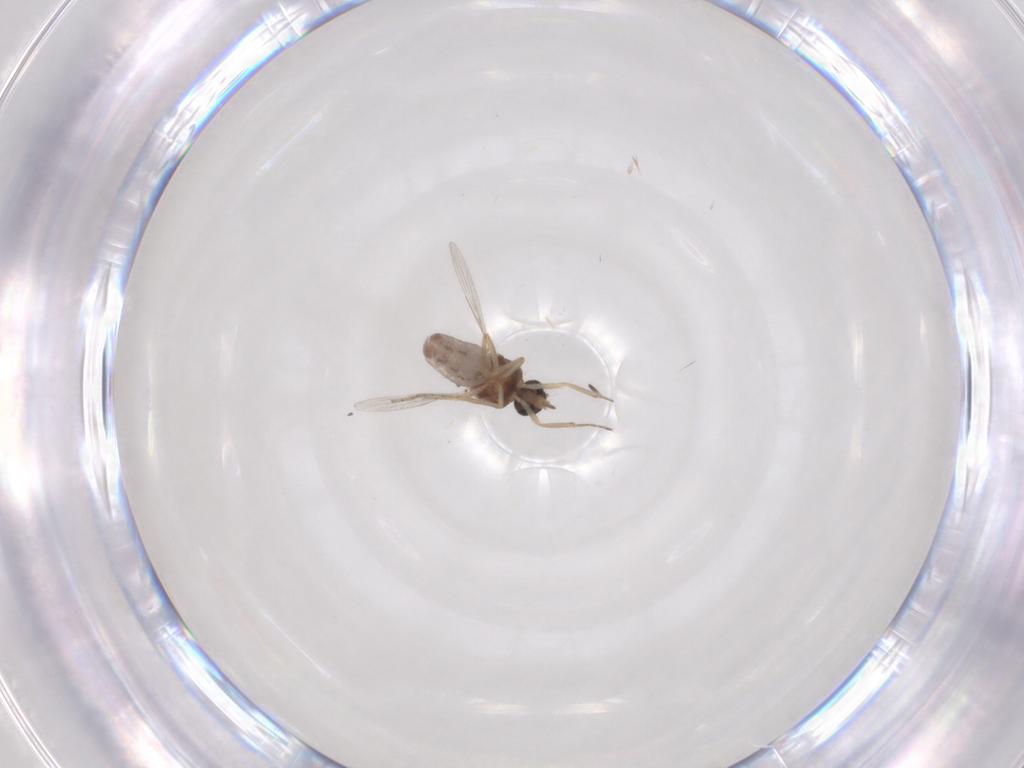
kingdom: Animalia
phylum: Arthropoda
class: Insecta
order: Diptera
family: Ceratopogonidae
